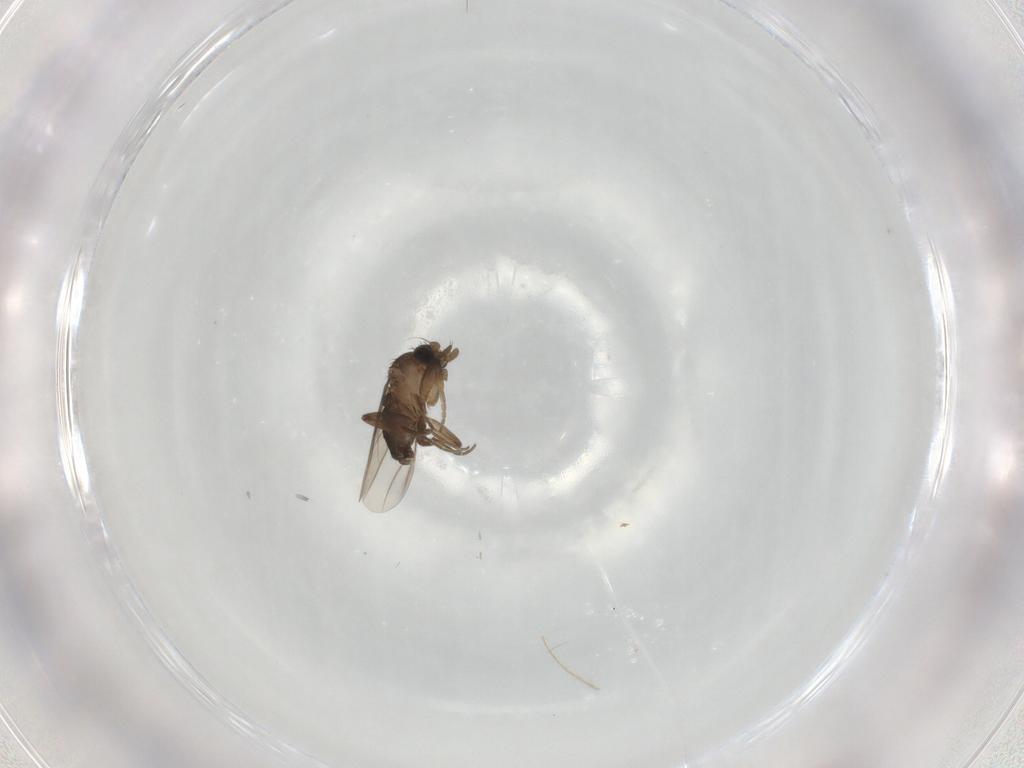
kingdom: Animalia
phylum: Arthropoda
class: Insecta
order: Diptera
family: Phoridae
